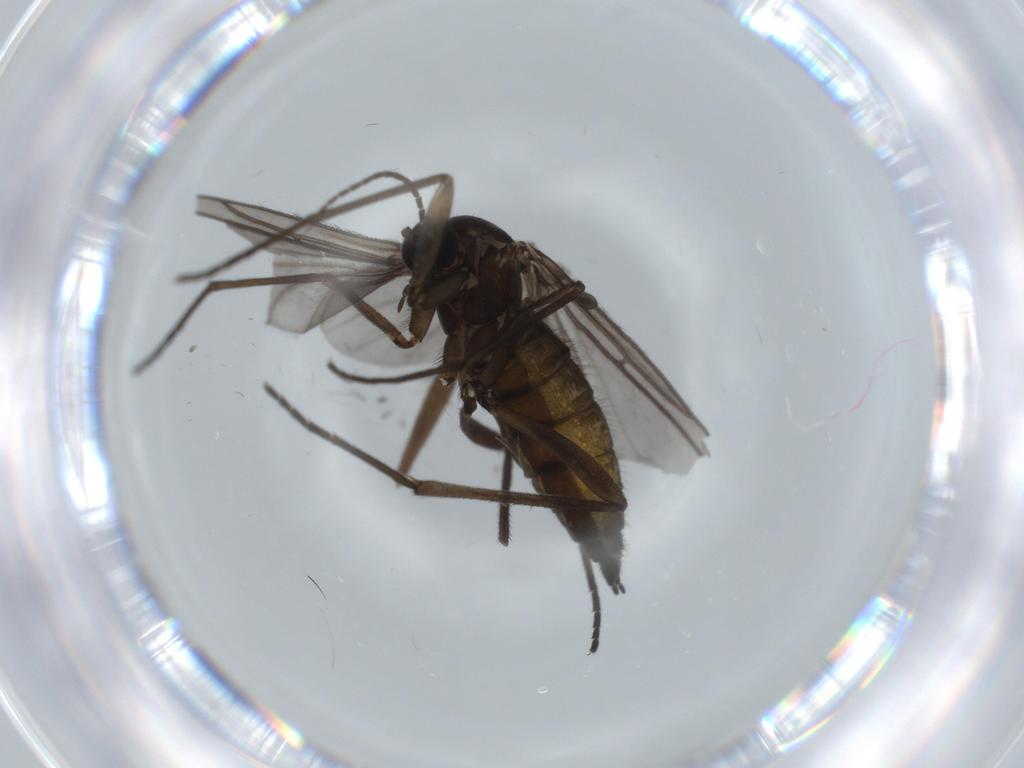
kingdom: Animalia
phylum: Arthropoda
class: Insecta
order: Diptera
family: Sciaridae
